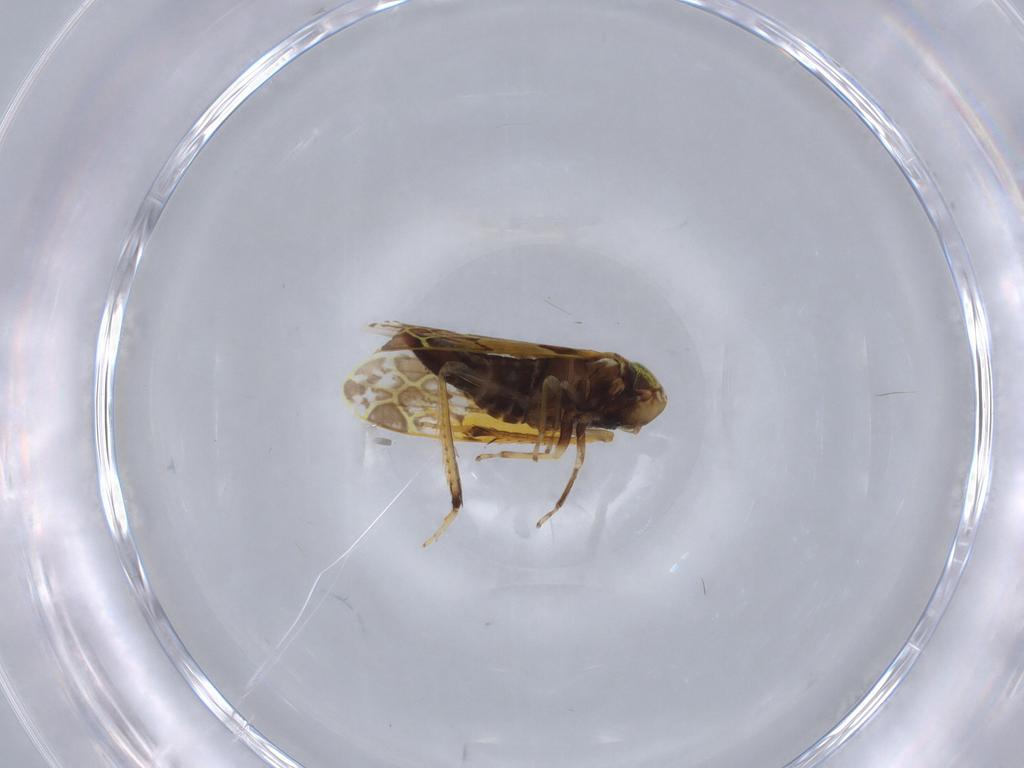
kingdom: Animalia
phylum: Arthropoda
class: Insecta
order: Hemiptera
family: Cicadellidae
